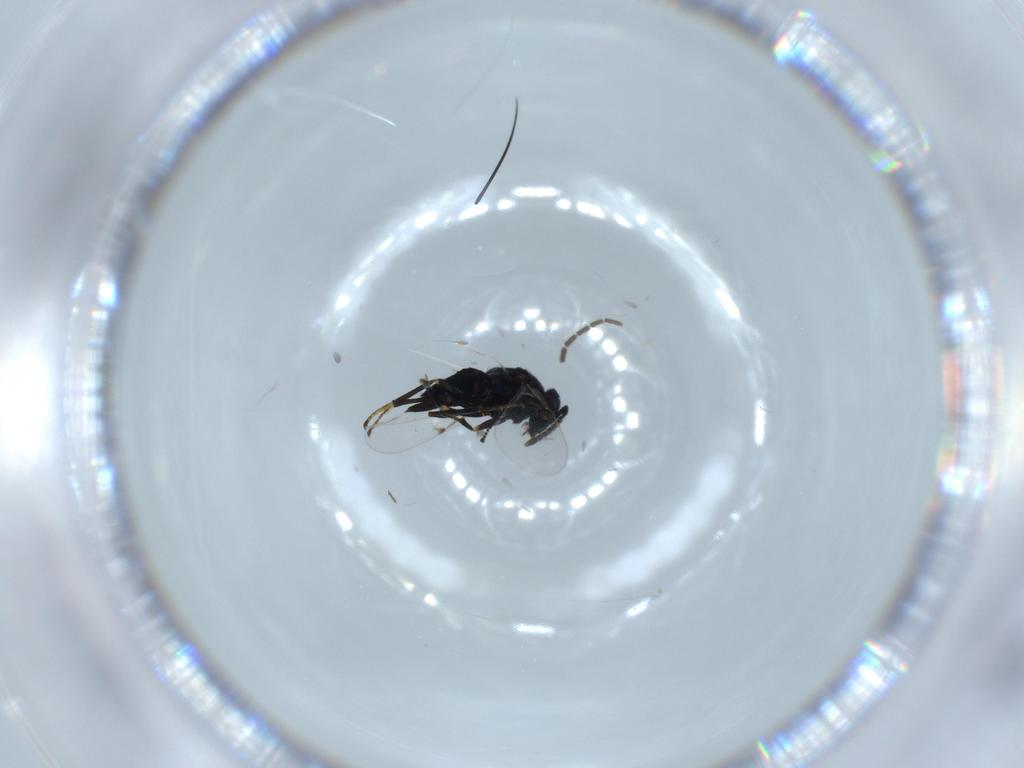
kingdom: Animalia
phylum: Arthropoda
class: Insecta
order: Hymenoptera
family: Encyrtidae
